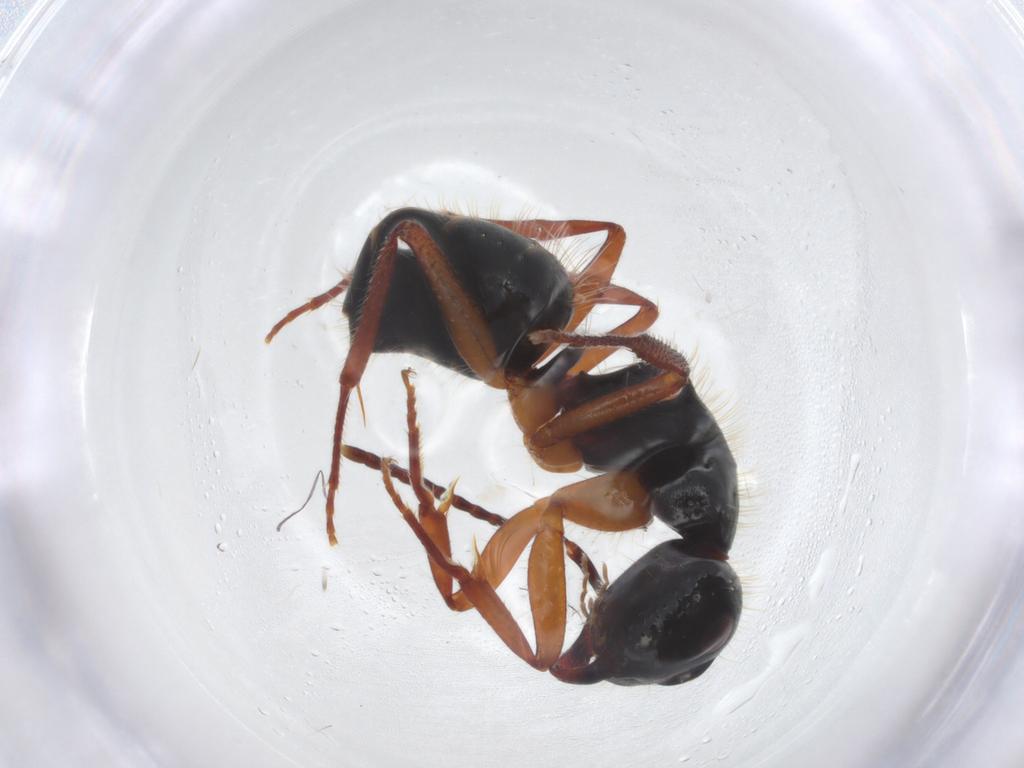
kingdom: Animalia
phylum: Arthropoda
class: Insecta
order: Hymenoptera
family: Formicidae
